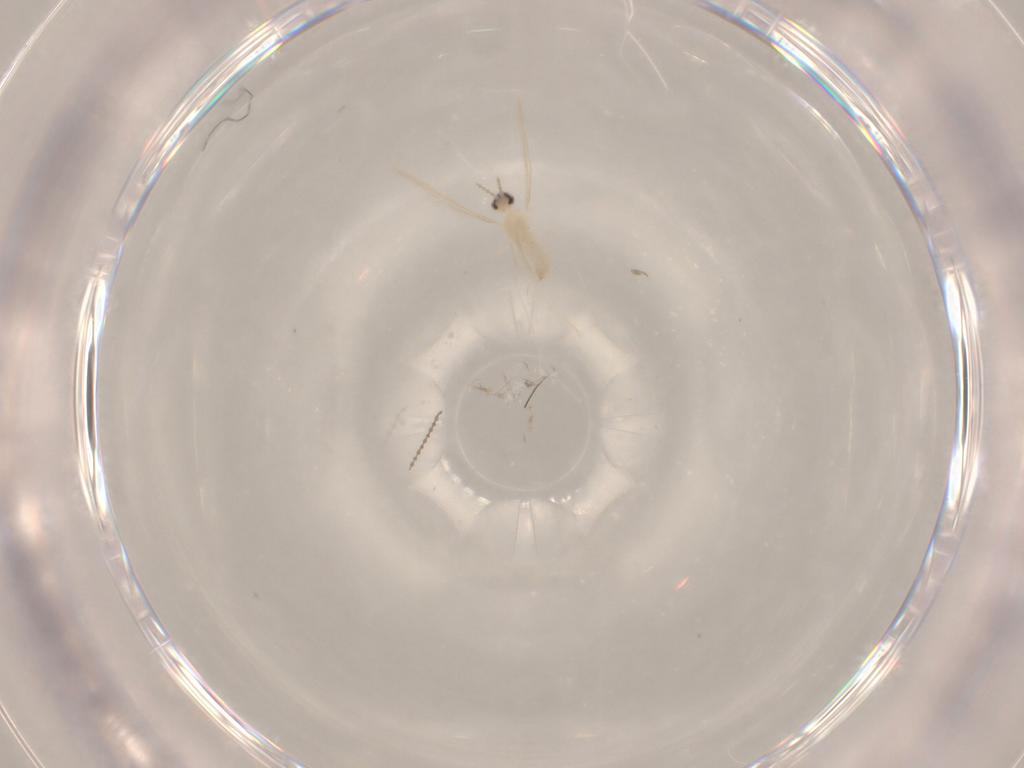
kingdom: Animalia
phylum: Arthropoda
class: Insecta
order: Diptera
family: Cecidomyiidae
